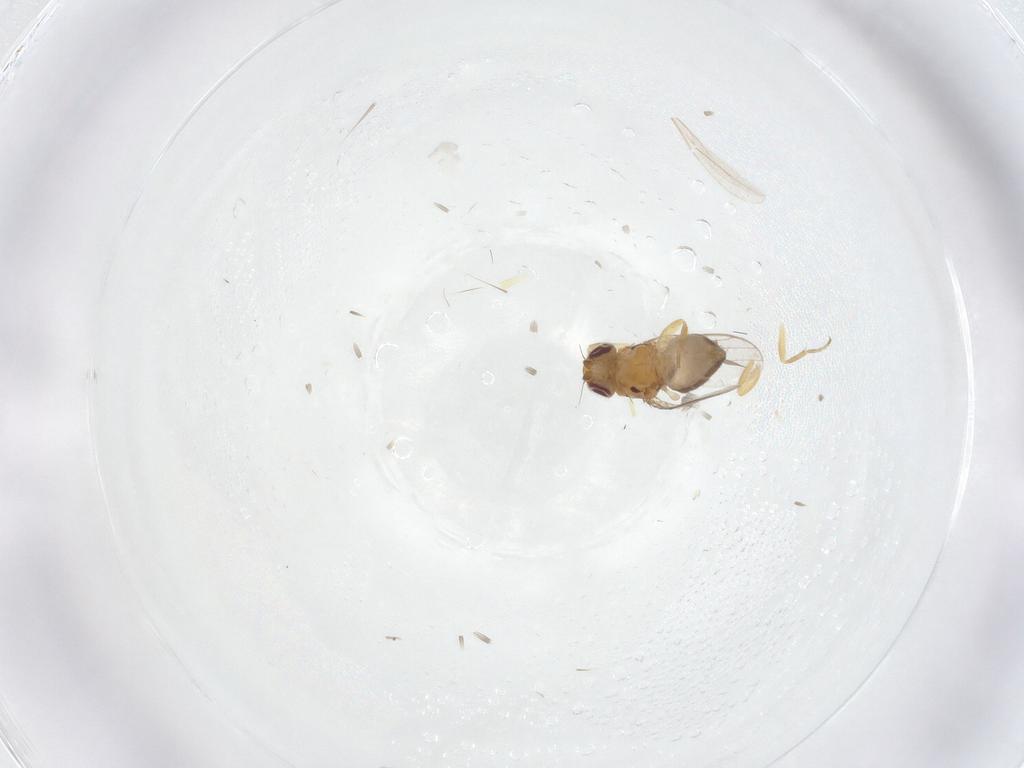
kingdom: Animalia
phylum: Arthropoda
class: Insecta
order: Diptera
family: Chloropidae
